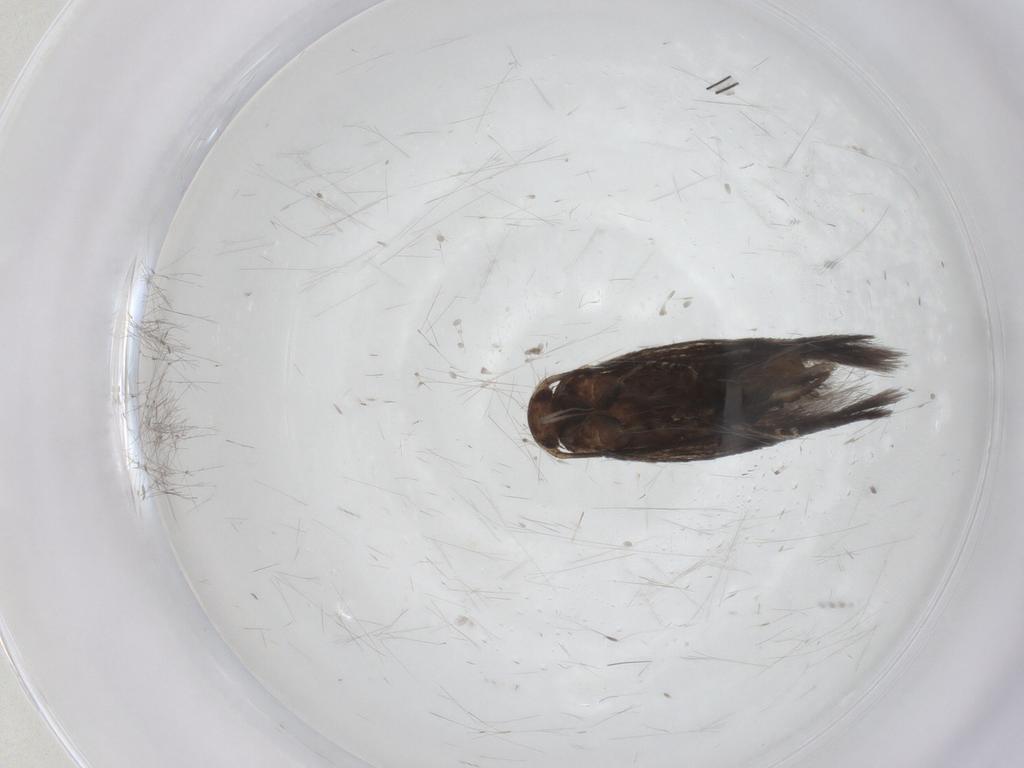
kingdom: Animalia
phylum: Arthropoda
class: Insecta
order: Lepidoptera
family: Elachistidae
